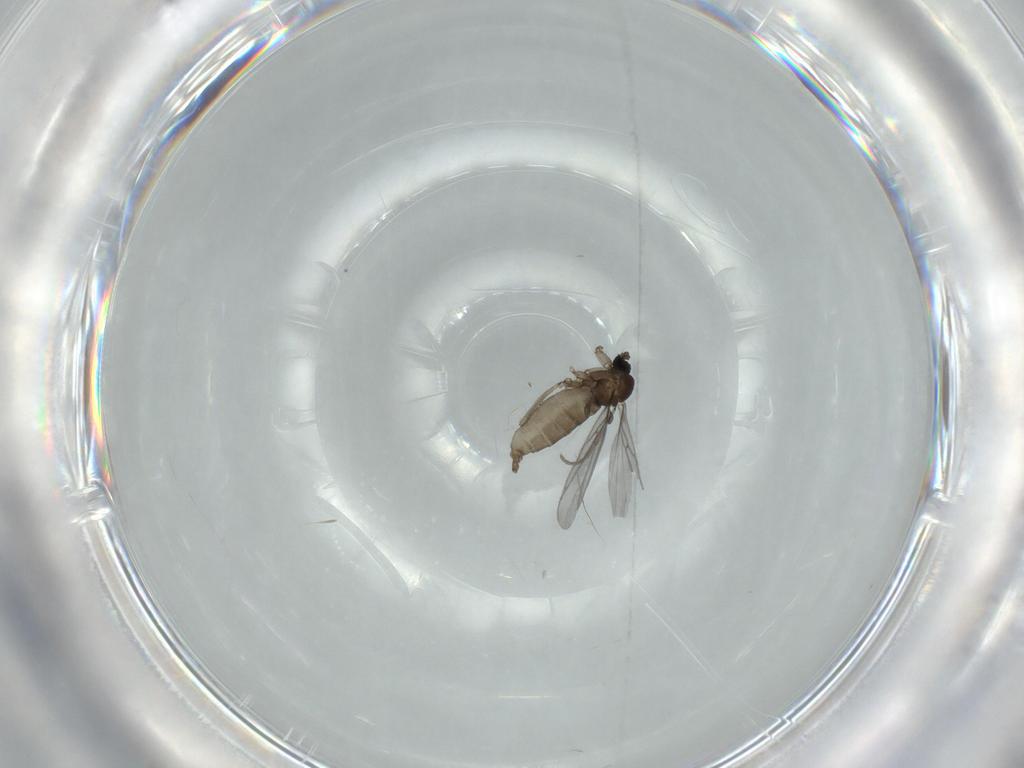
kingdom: Animalia
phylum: Arthropoda
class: Insecta
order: Diptera
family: Sciaridae
